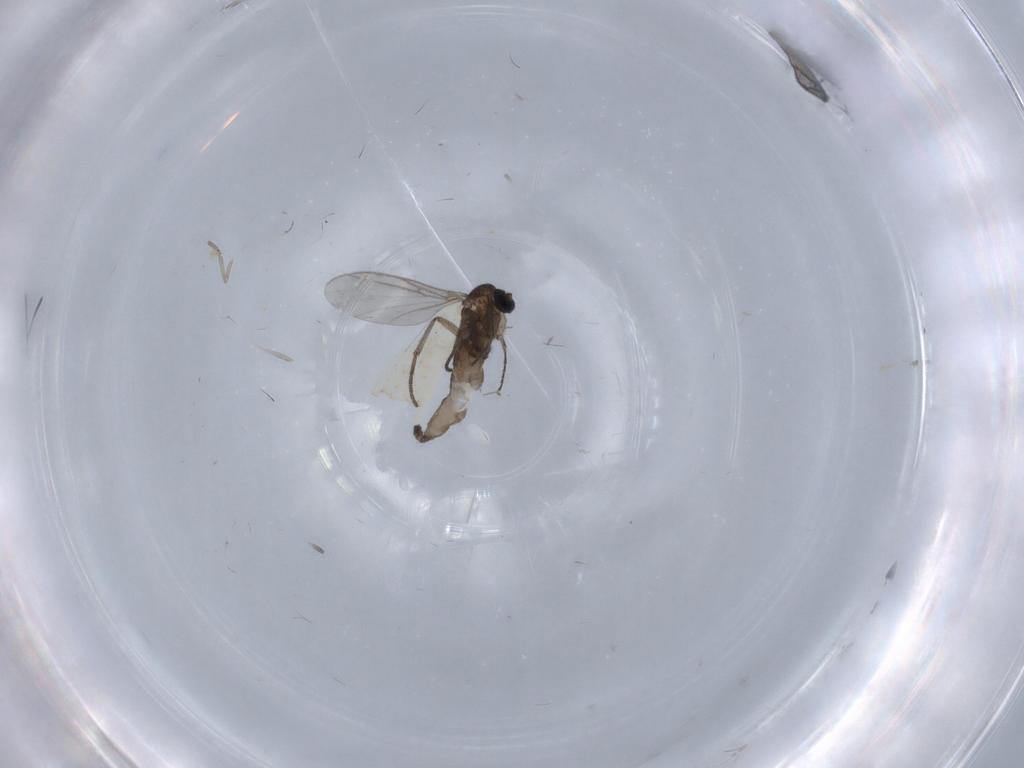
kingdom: Animalia
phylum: Arthropoda
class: Insecta
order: Diptera
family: Psychodidae
